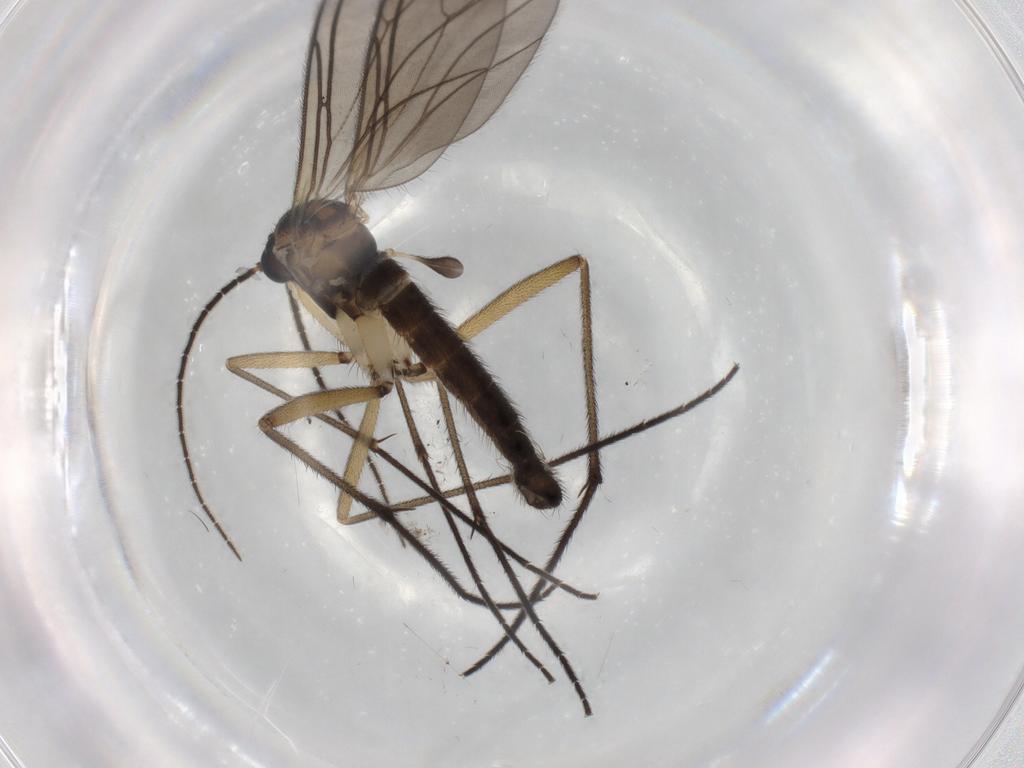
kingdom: Animalia
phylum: Arthropoda
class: Insecta
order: Diptera
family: Sciaridae
